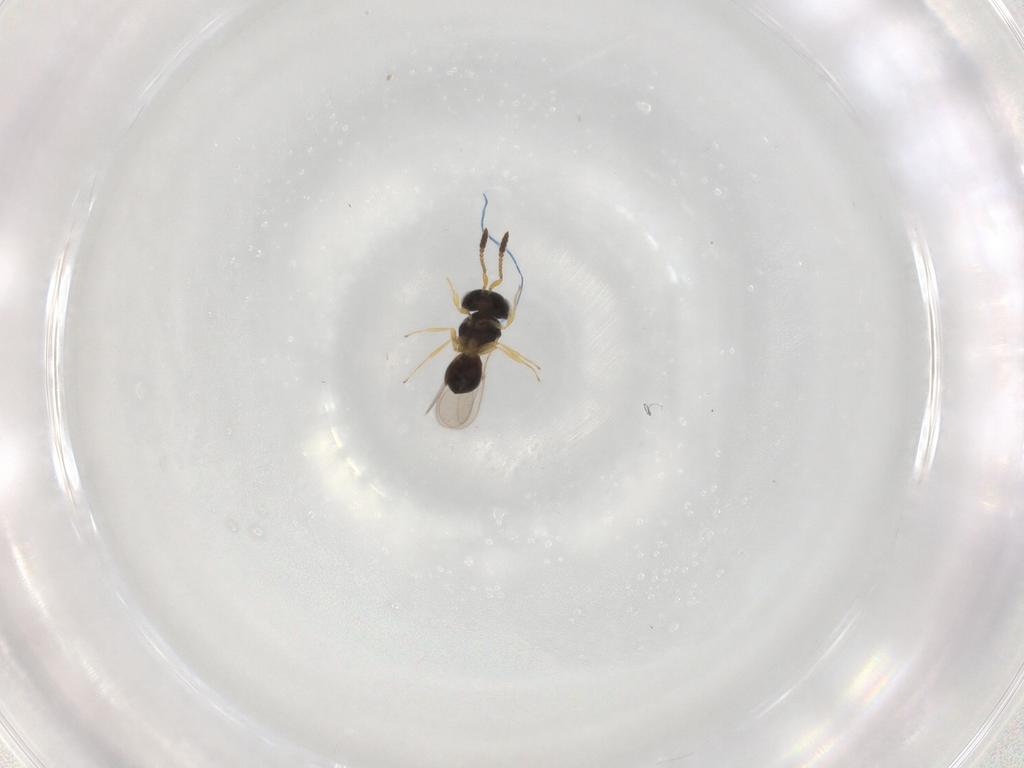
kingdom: Animalia
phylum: Arthropoda
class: Insecta
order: Hymenoptera
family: Scelionidae
